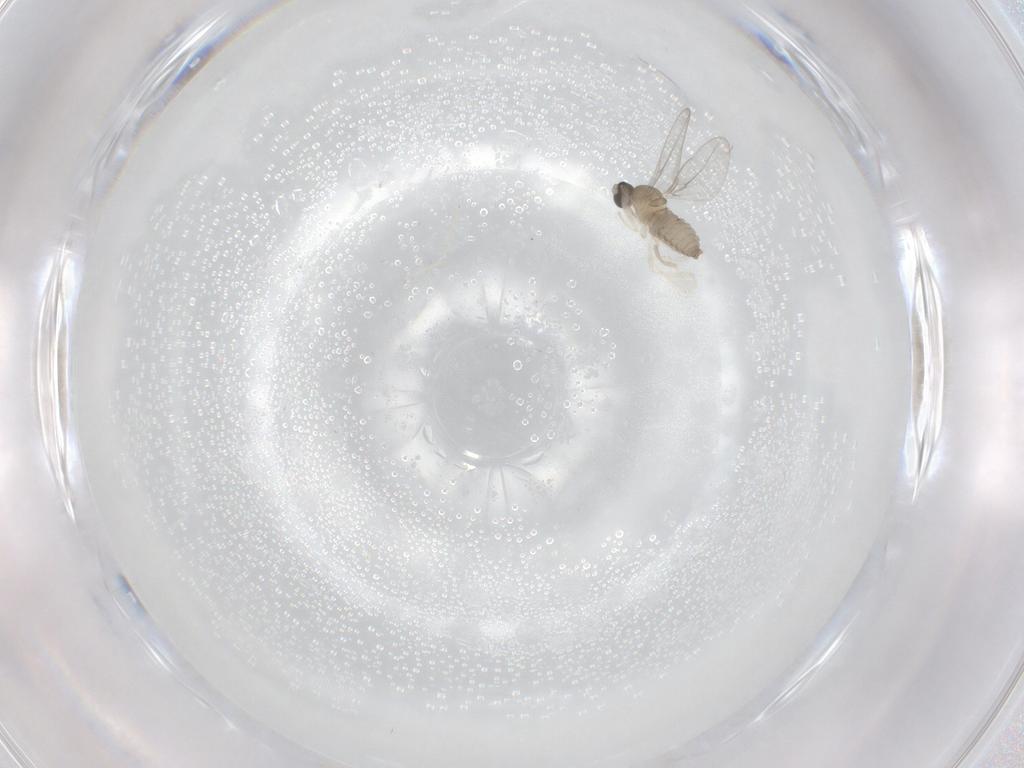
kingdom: Animalia
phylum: Arthropoda
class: Insecta
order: Diptera
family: Cecidomyiidae
